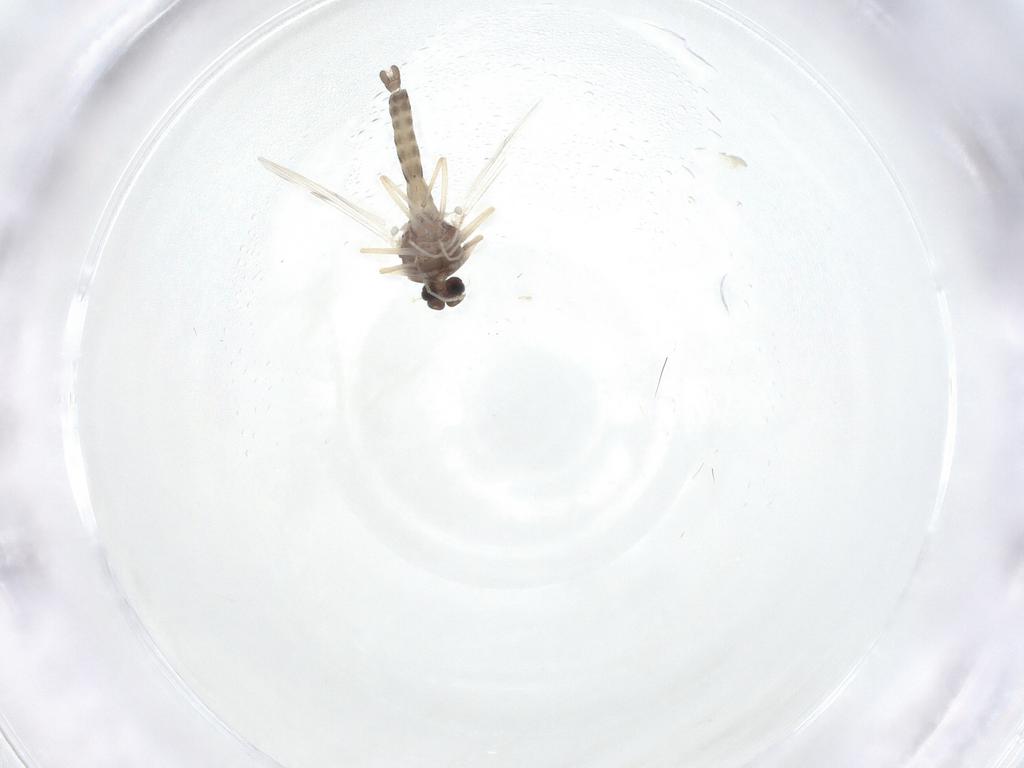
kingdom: Animalia
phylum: Arthropoda
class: Insecta
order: Diptera
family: Ceratopogonidae
